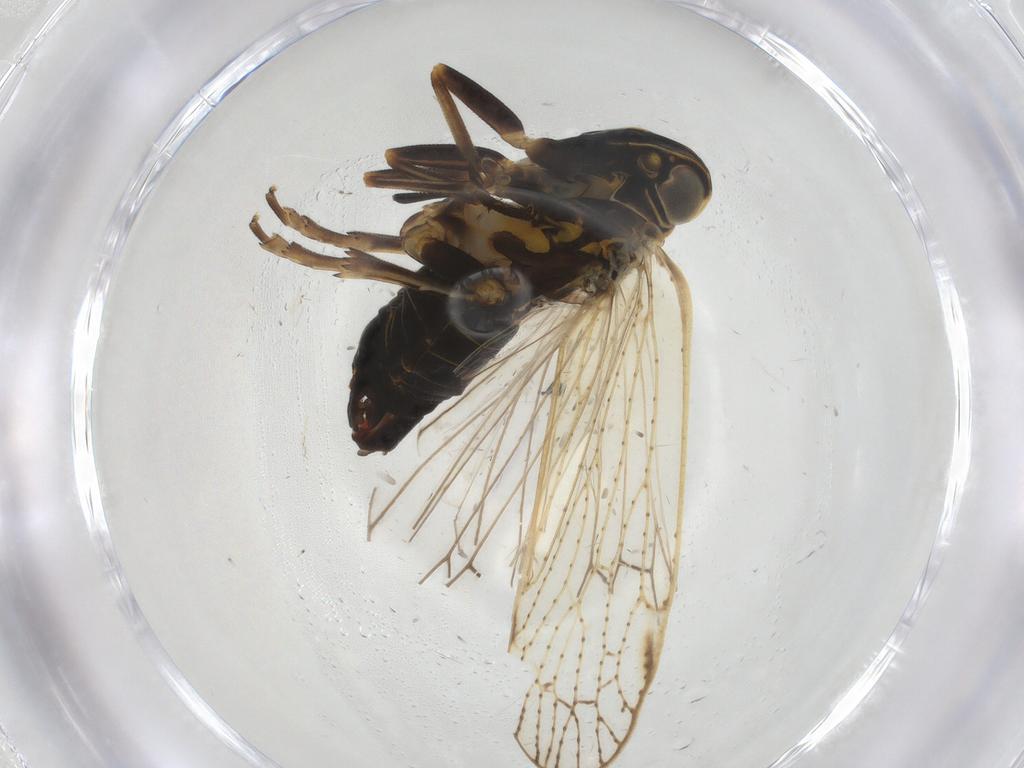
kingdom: Animalia
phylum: Arthropoda
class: Insecta
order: Hemiptera
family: Cixiidae
